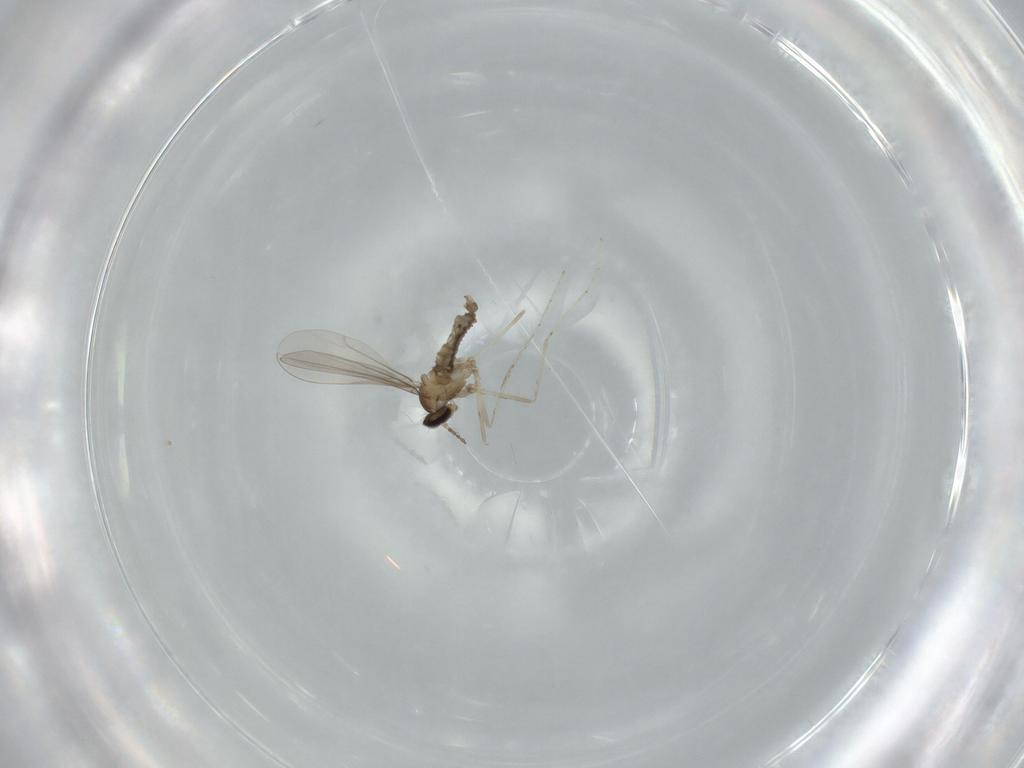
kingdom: Animalia
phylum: Arthropoda
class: Insecta
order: Diptera
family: Cecidomyiidae
